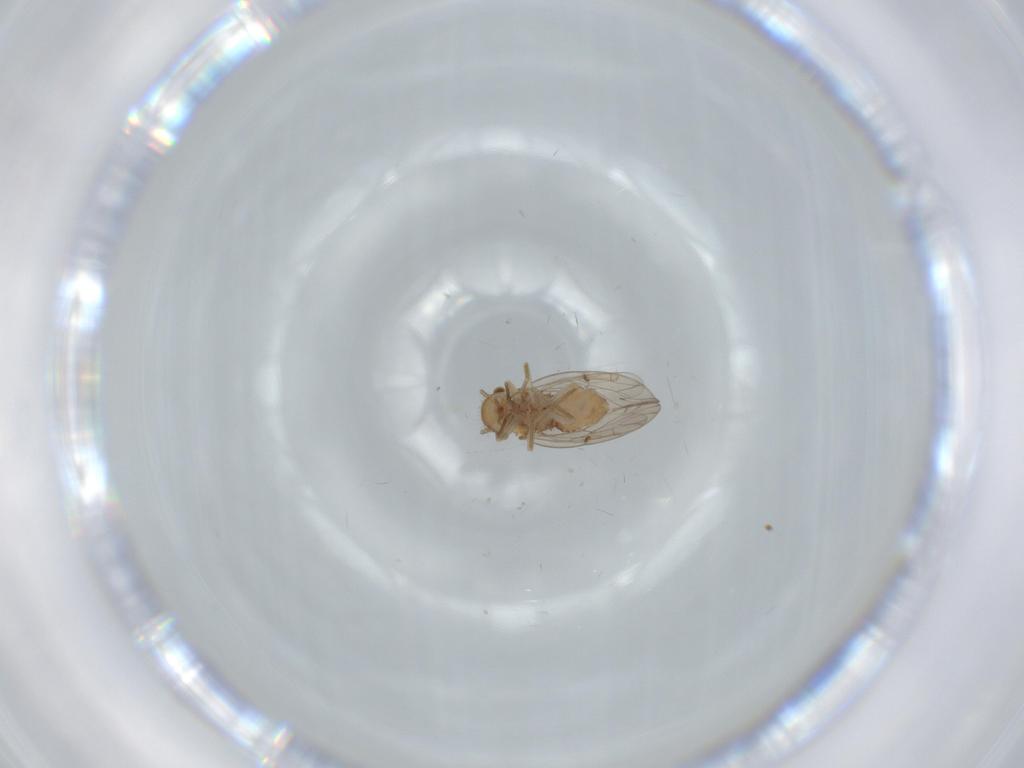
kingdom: Animalia
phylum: Arthropoda
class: Insecta
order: Psocodea
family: Ectopsocidae
